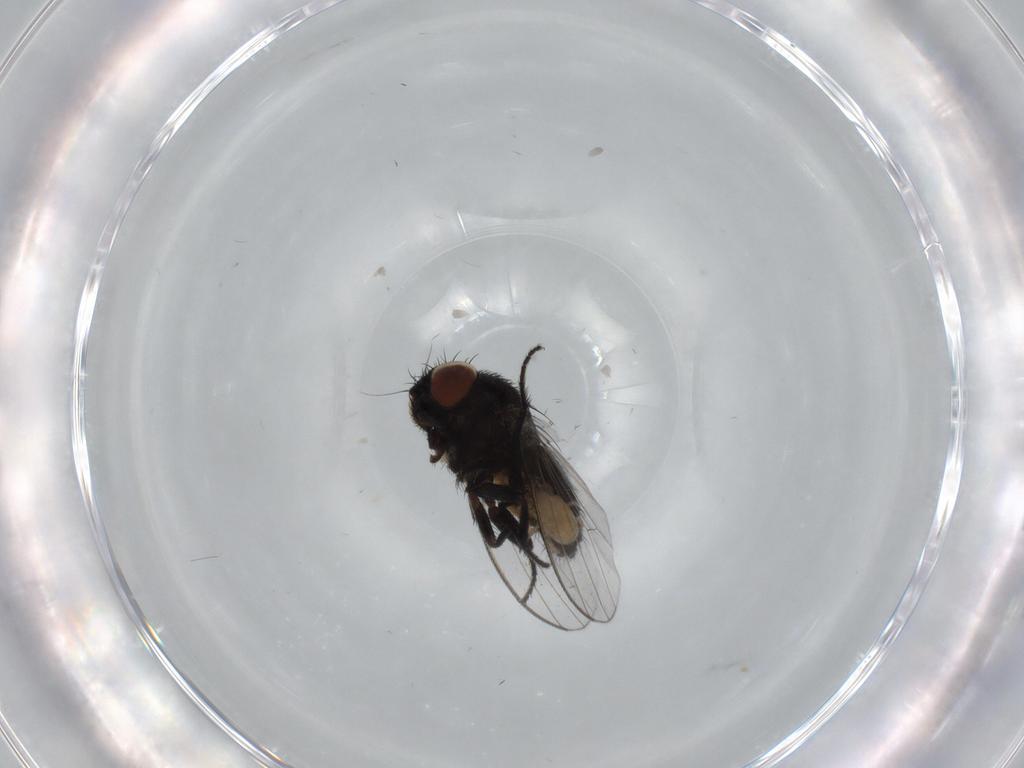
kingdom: Animalia
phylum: Arthropoda
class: Insecta
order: Diptera
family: Milichiidae
